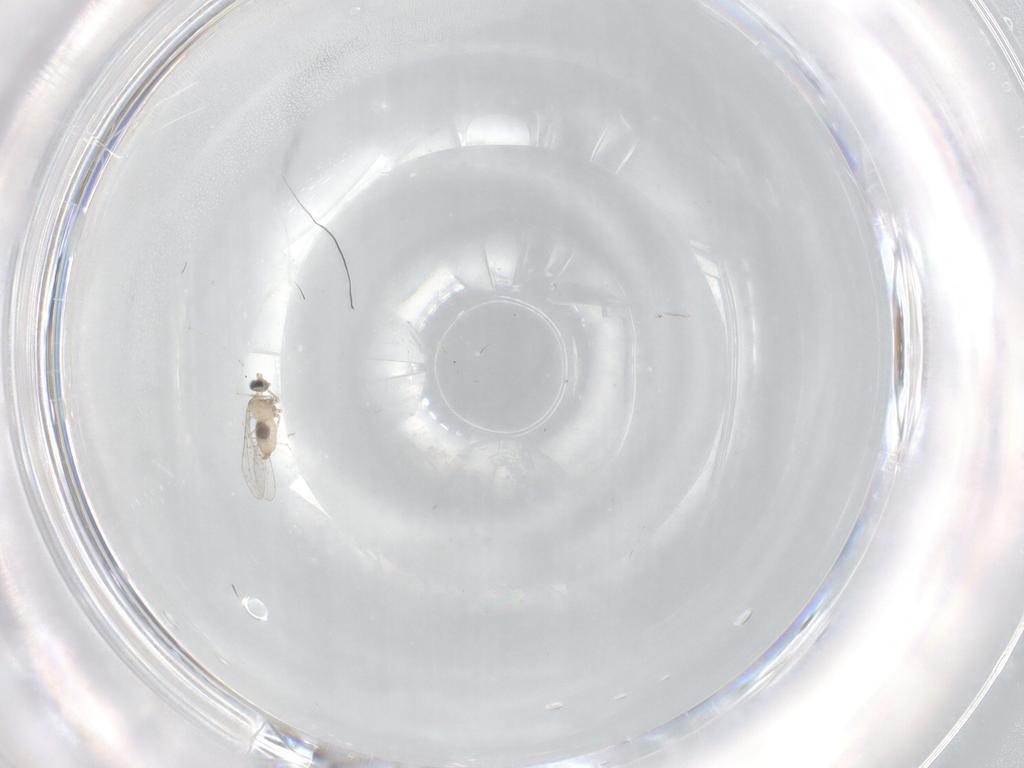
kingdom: Animalia
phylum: Arthropoda
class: Insecta
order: Diptera
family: Cecidomyiidae
